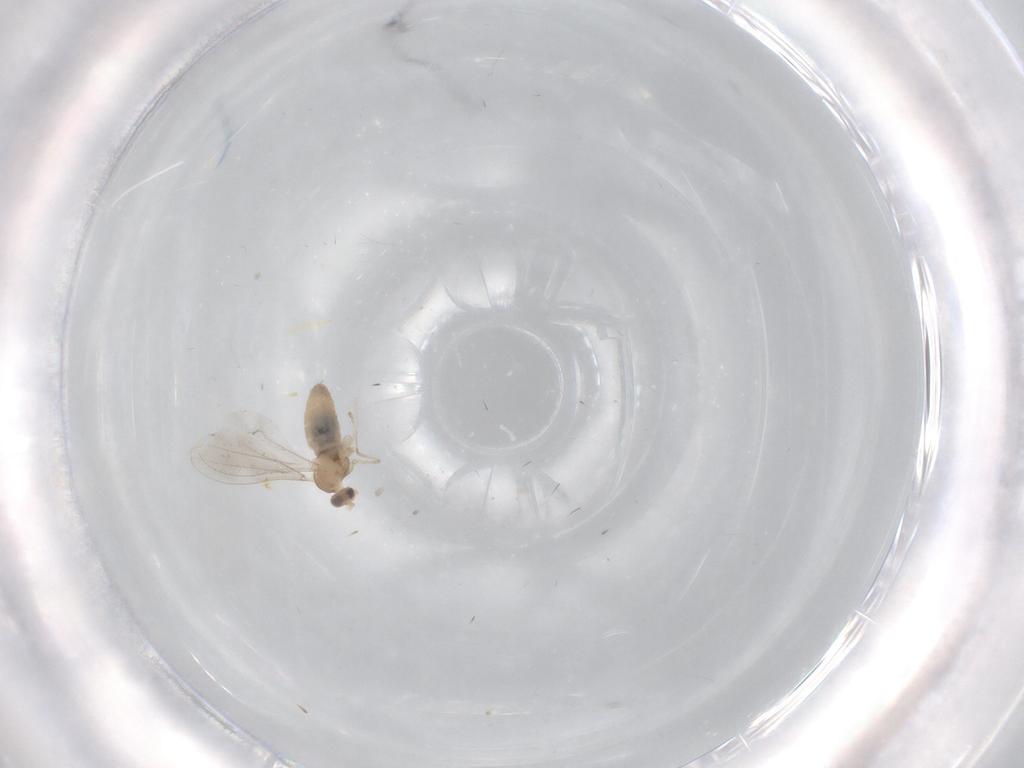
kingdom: Animalia
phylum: Arthropoda
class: Insecta
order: Diptera
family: Cecidomyiidae
